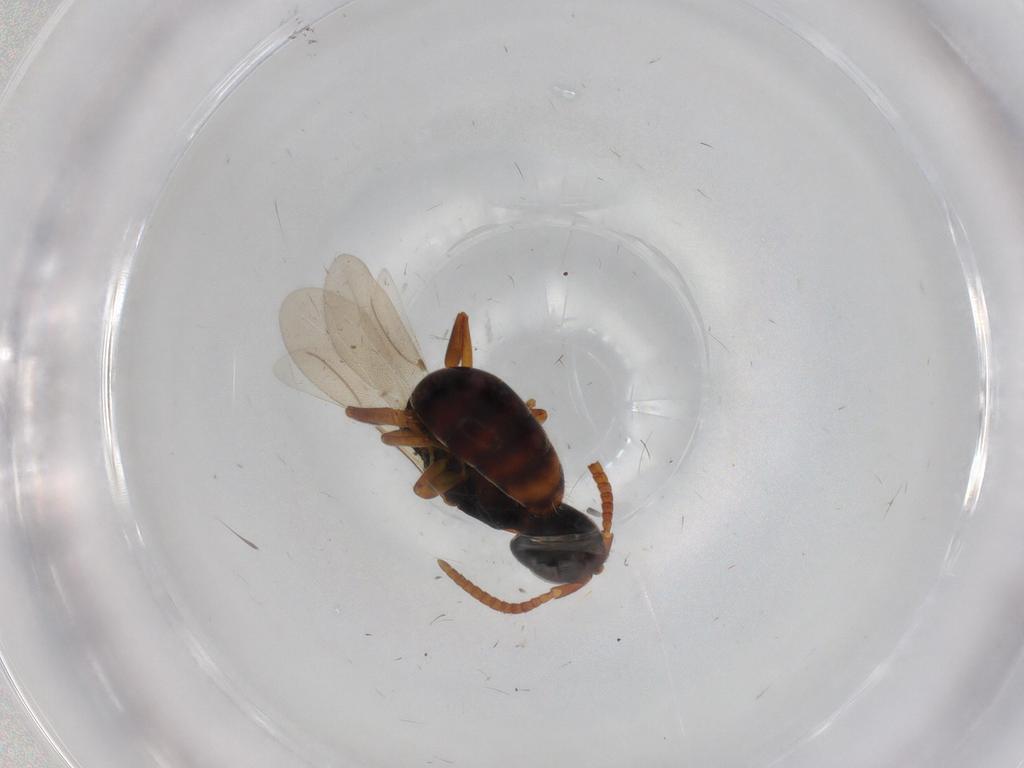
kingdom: Animalia
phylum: Arthropoda
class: Insecta
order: Hymenoptera
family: Bethylidae
